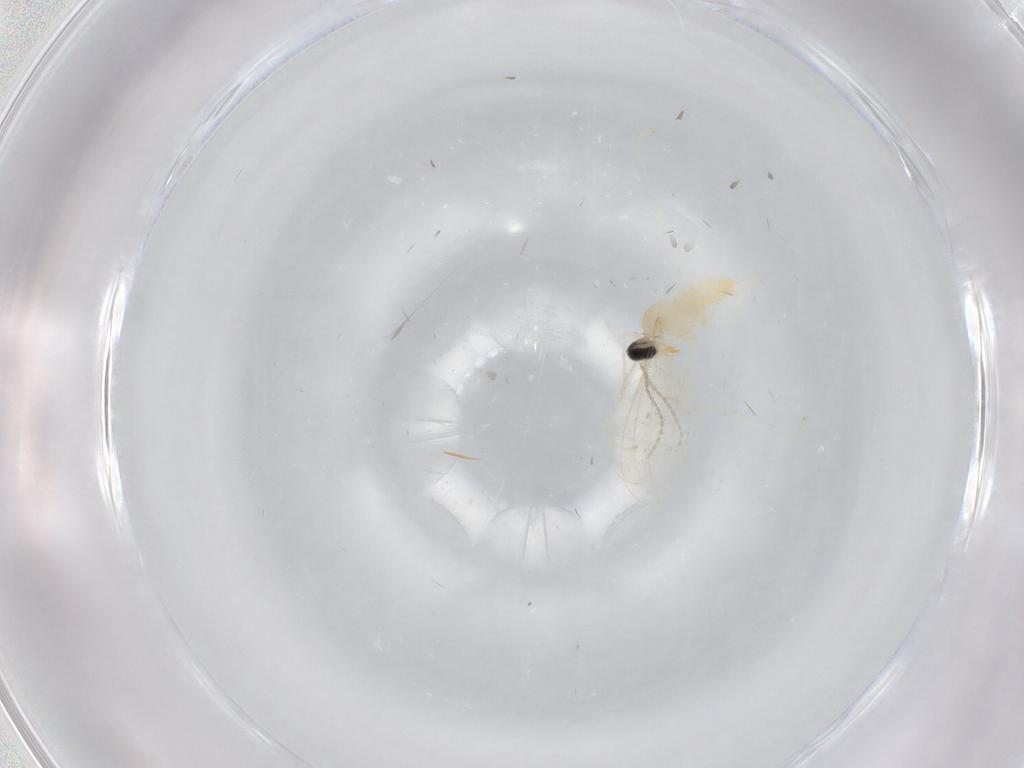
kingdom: Animalia
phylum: Arthropoda
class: Insecta
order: Diptera
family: Cecidomyiidae
